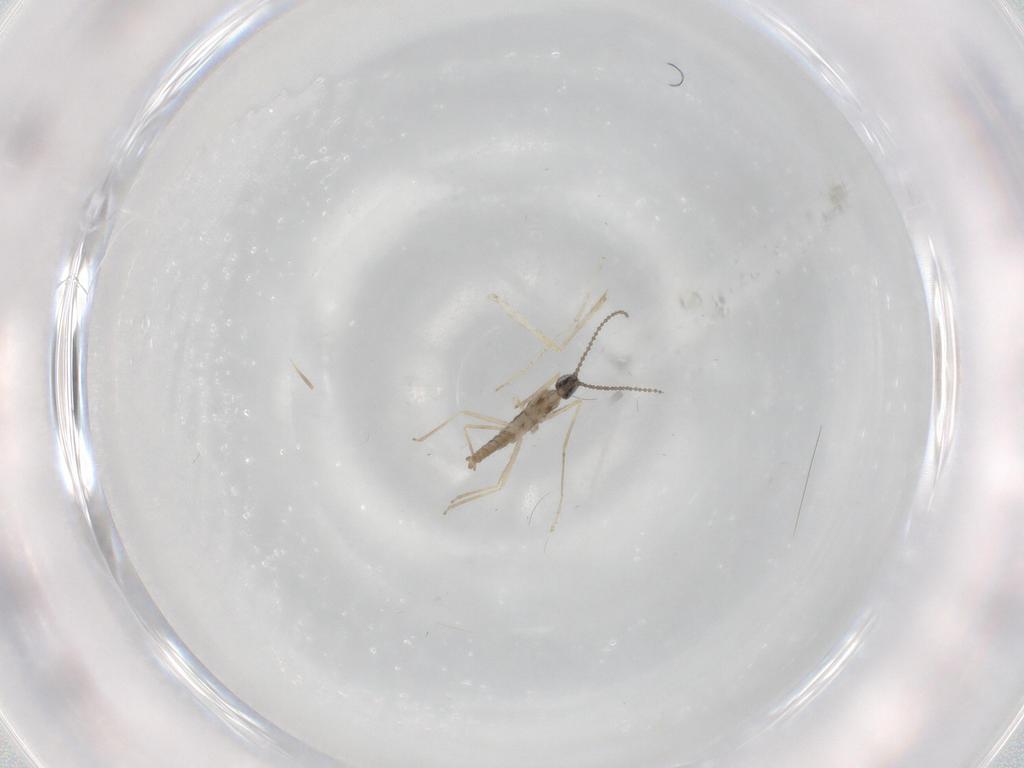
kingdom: Animalia
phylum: Arthropoda
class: Insecta
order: Diptera
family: Chironomidae
